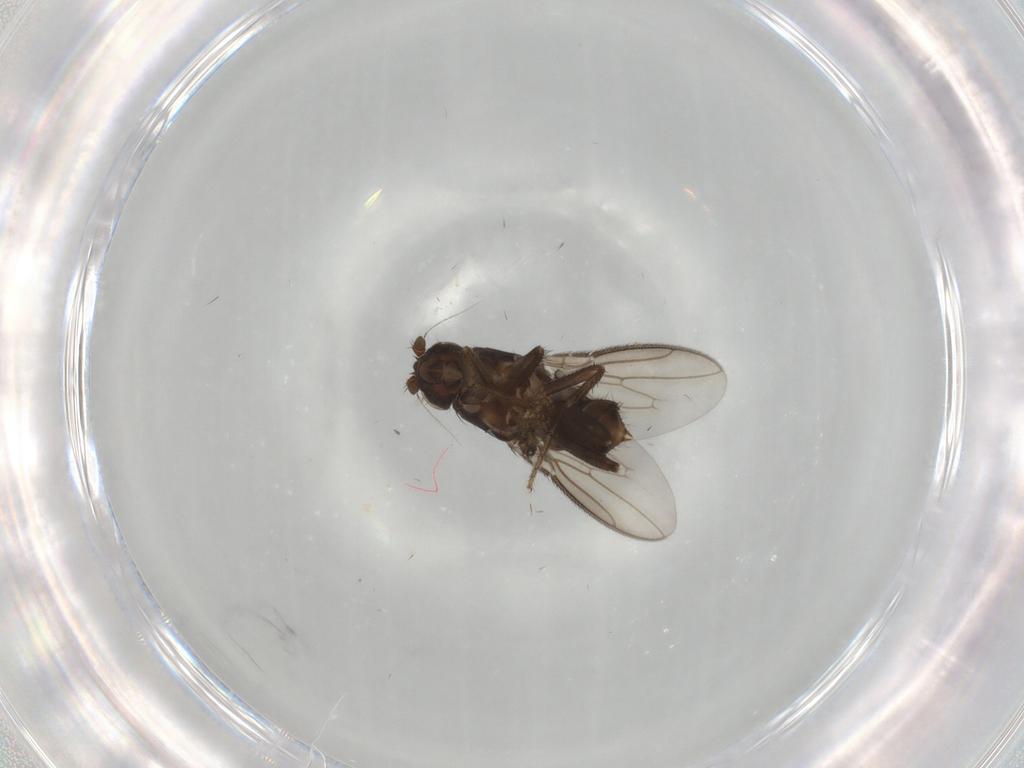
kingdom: Animalia
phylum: Arthropoda
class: Insecta
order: Diptera
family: Sphaeroceridae
